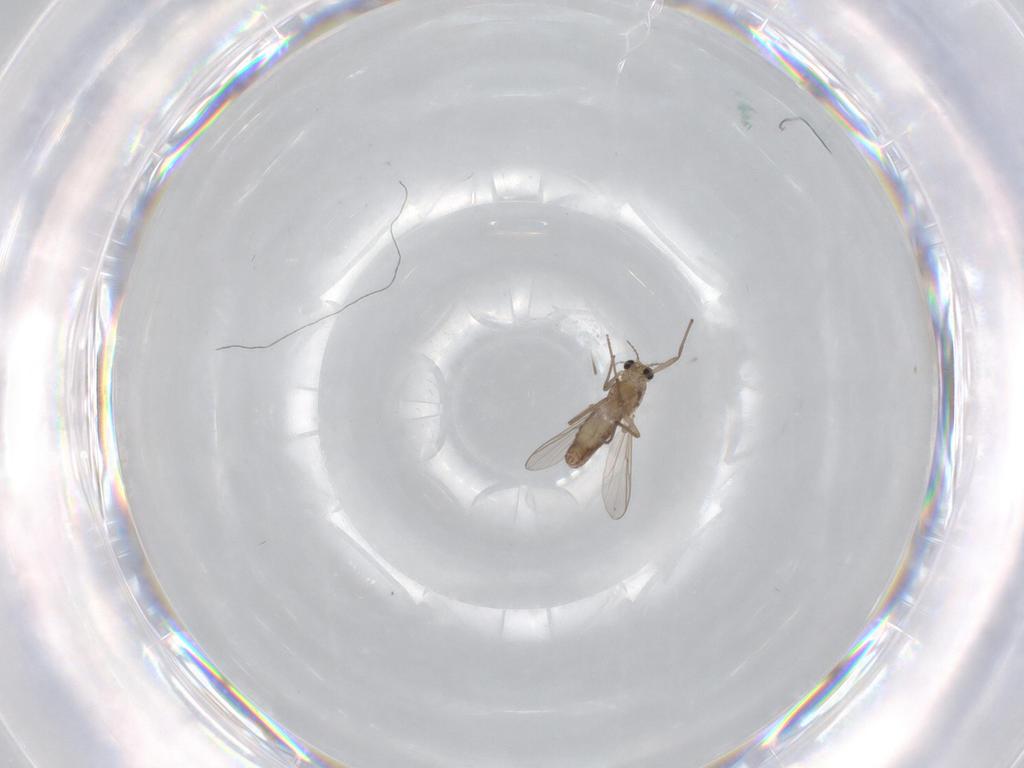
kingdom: Animalia
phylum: Arthropoda
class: Insecta
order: Diptera
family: Chironomidae
